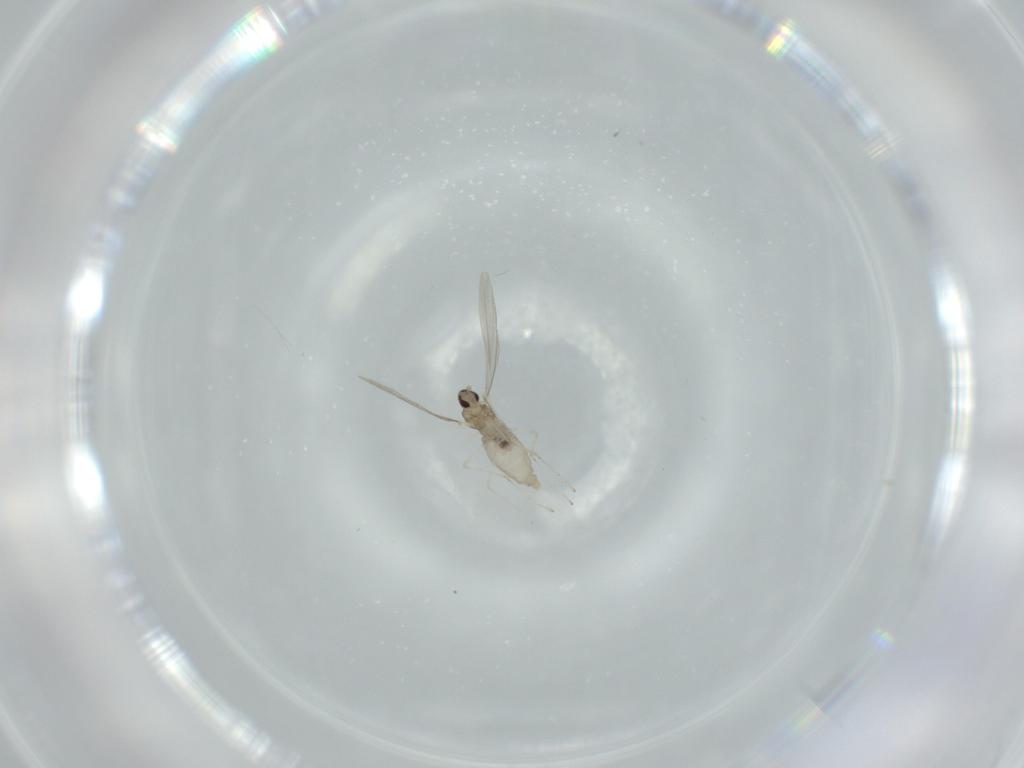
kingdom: Animalia
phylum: Arthropoda
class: Insecta
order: Diptera
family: Cecidomyiidae
